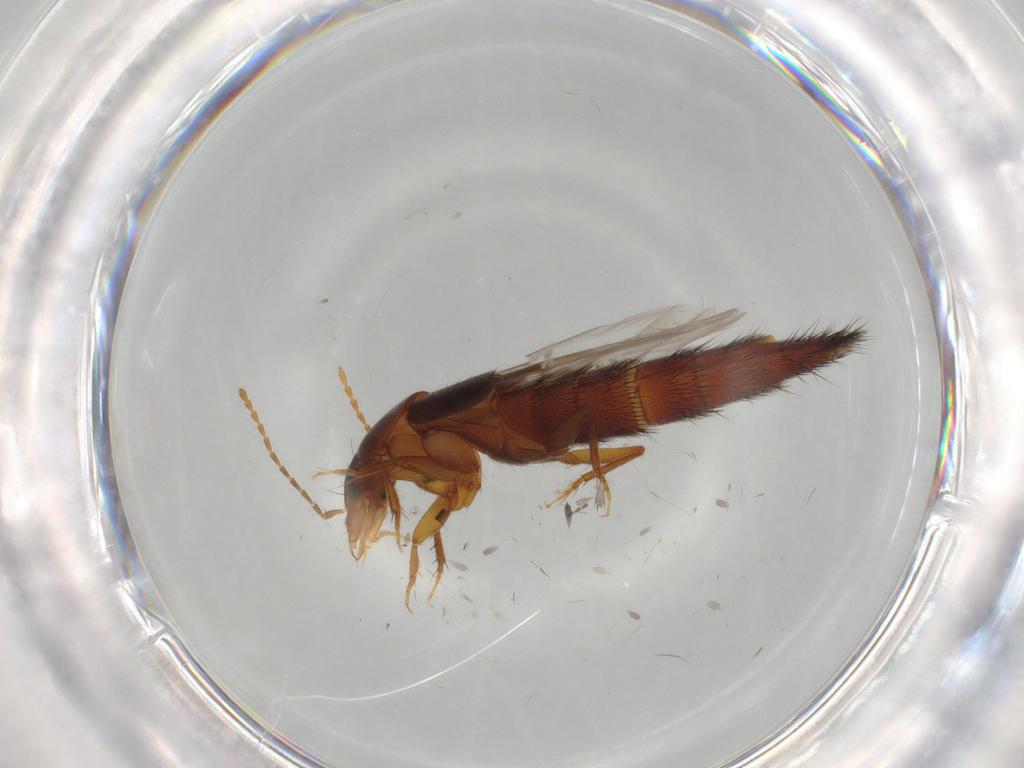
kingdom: Animalia
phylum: Arthropoda
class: Insecta
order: Coleoptera
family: Staphylinidae
